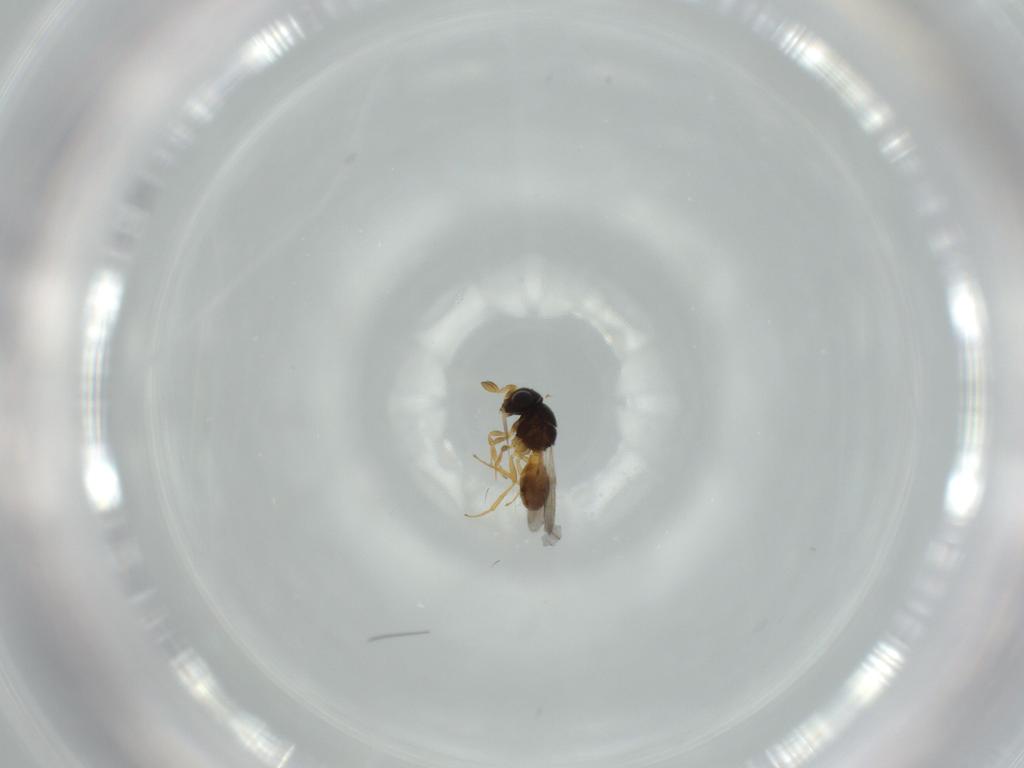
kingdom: Animalia
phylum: Arthropoda
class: Insecta
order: Hymenoptera
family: Scelionidae
